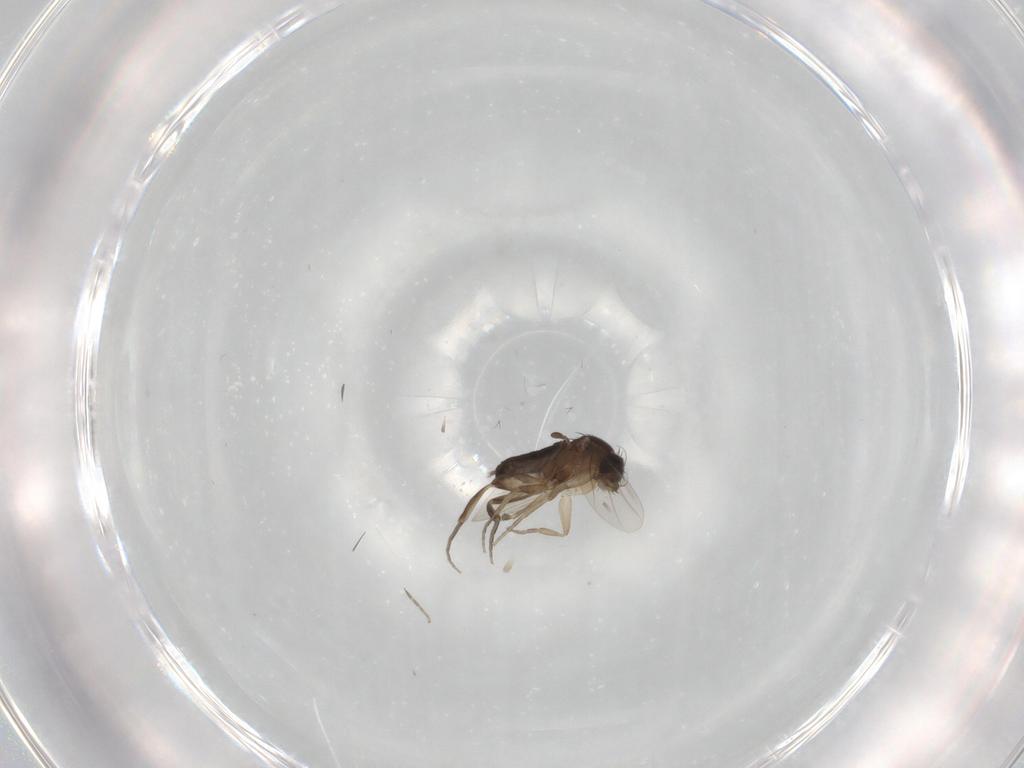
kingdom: Animalia
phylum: Arthropoda
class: Insecta
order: Diptera
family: Phoridae
